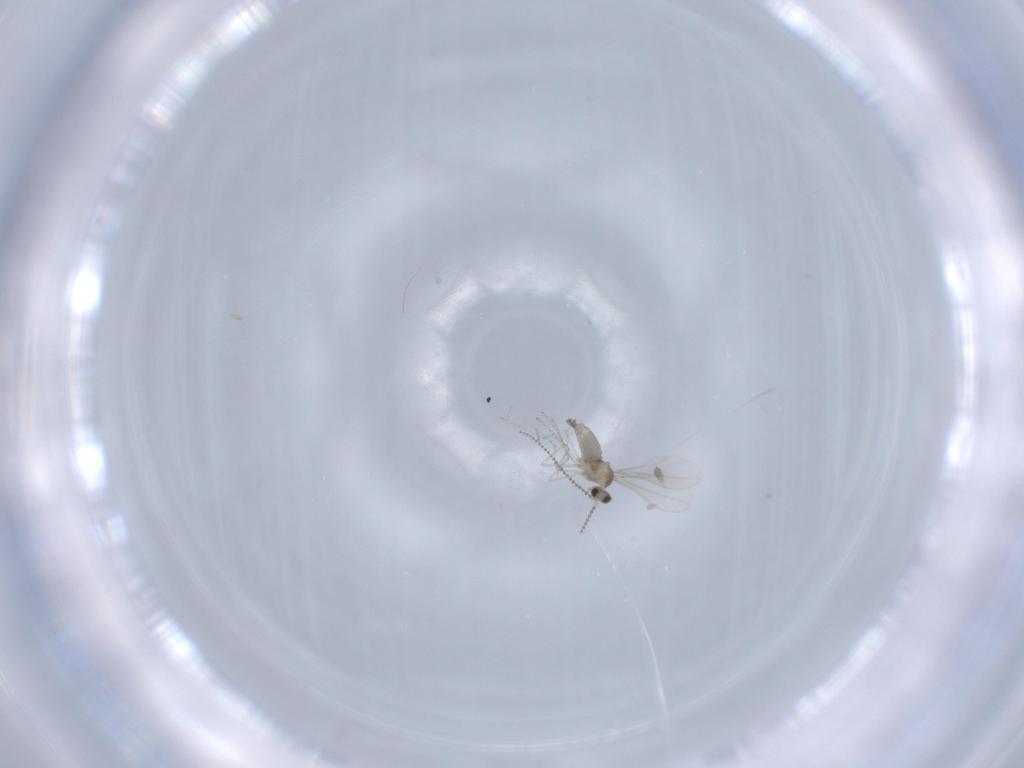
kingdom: Animalia
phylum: Arthropoda
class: Insecta
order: Diptera
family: Cecidomyiidae
